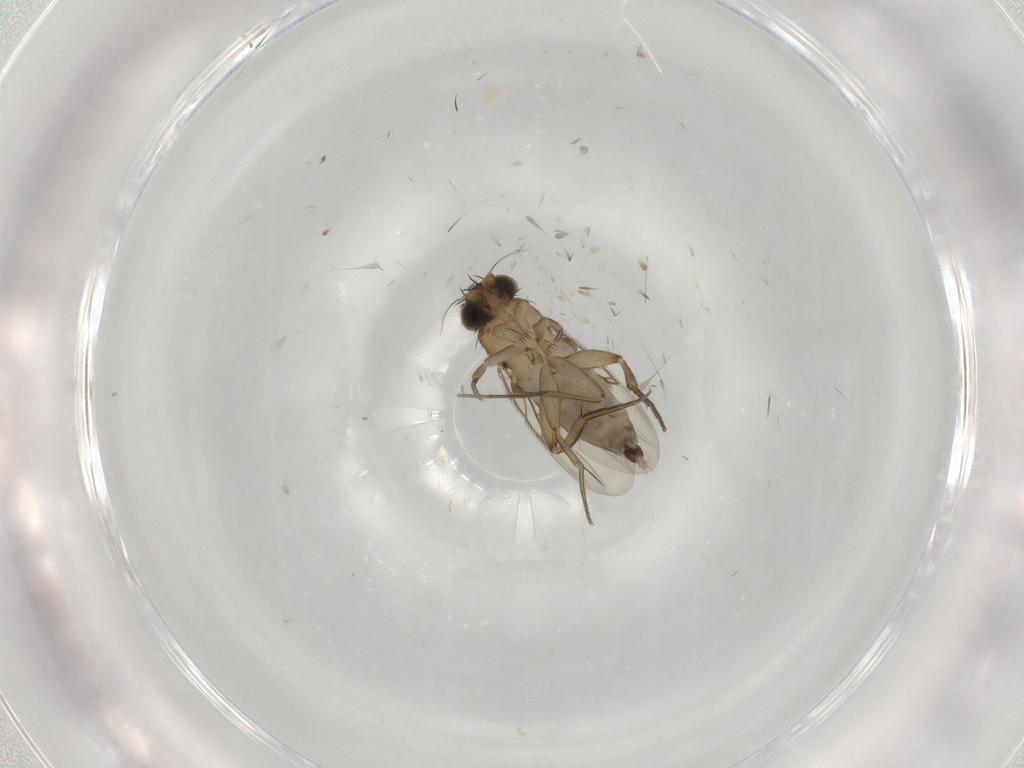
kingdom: Animalia
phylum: Arthropoda
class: Insecta
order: Diptera
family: Phoridae
